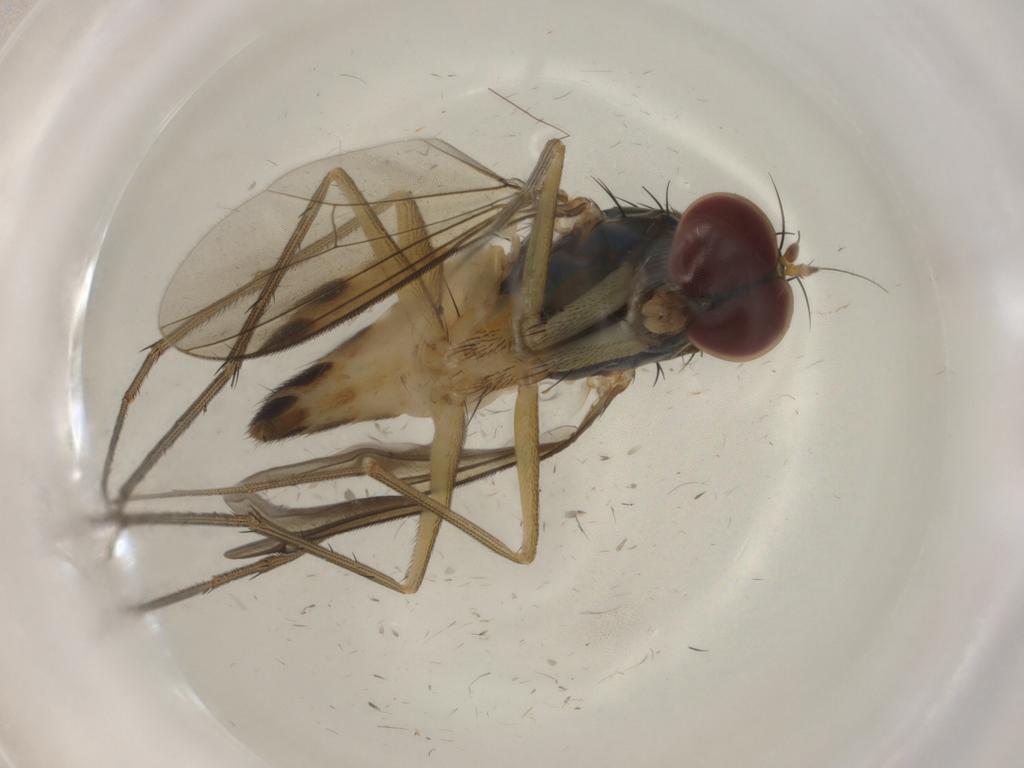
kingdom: Animalia
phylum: Arthropoda
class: Insecta
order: Diptera
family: Dolichopodidae
